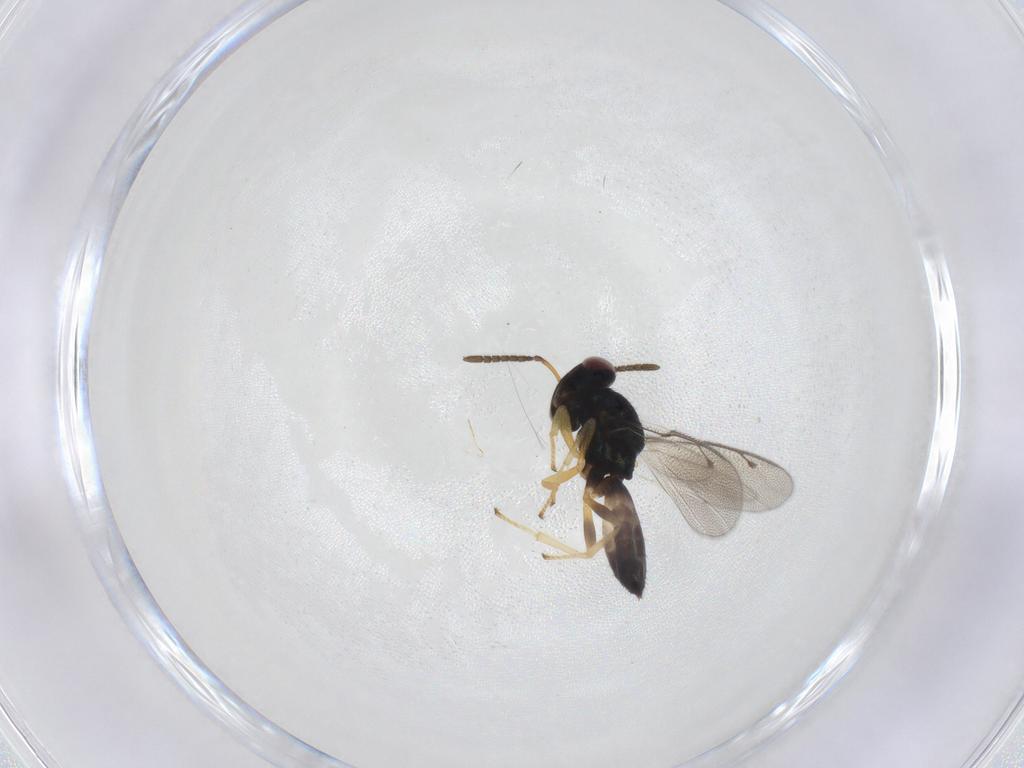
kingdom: Animalia
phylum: Arthropoda
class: Insecta
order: Hymenoptera
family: Pteromalidae
